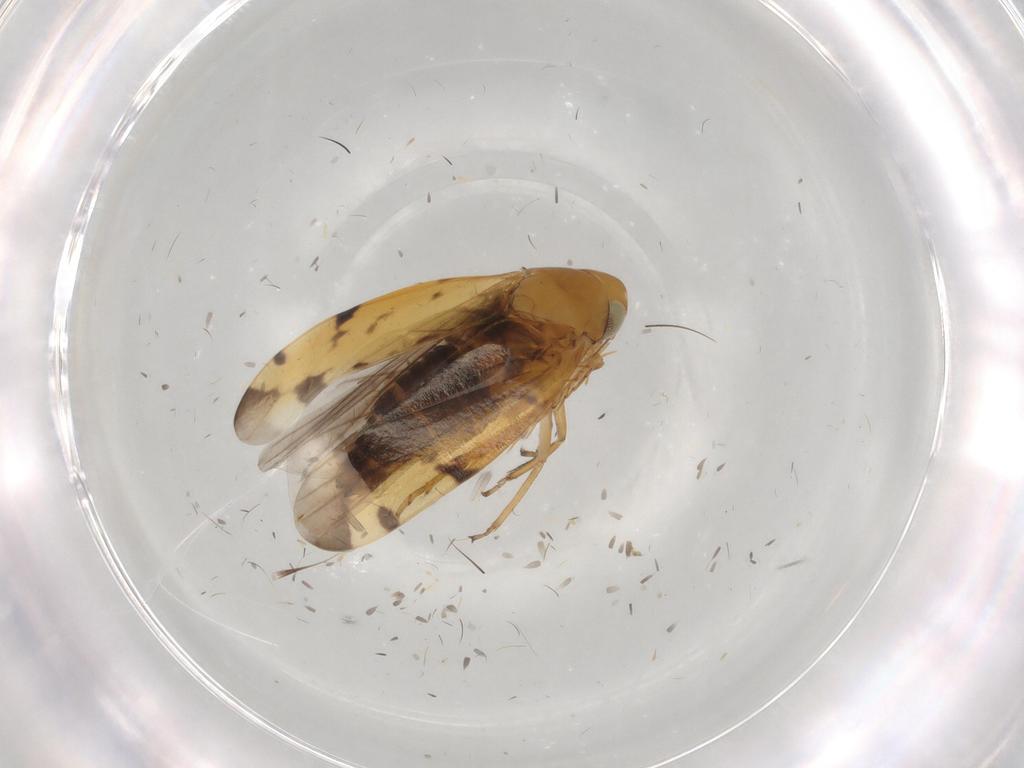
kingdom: Animalia
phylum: Arthropoda
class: Insecta
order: Hemiptera
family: Cicadellidae
